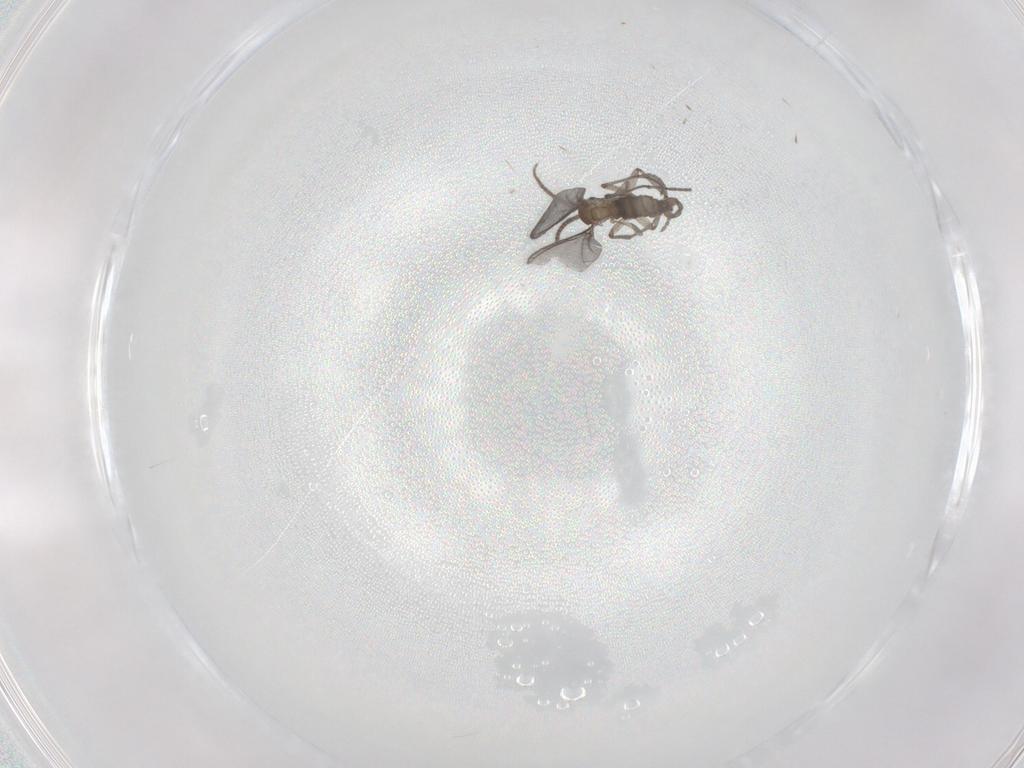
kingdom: Animalia
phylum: Arthropoda
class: Insecta
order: Diptera
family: Sciaridae
